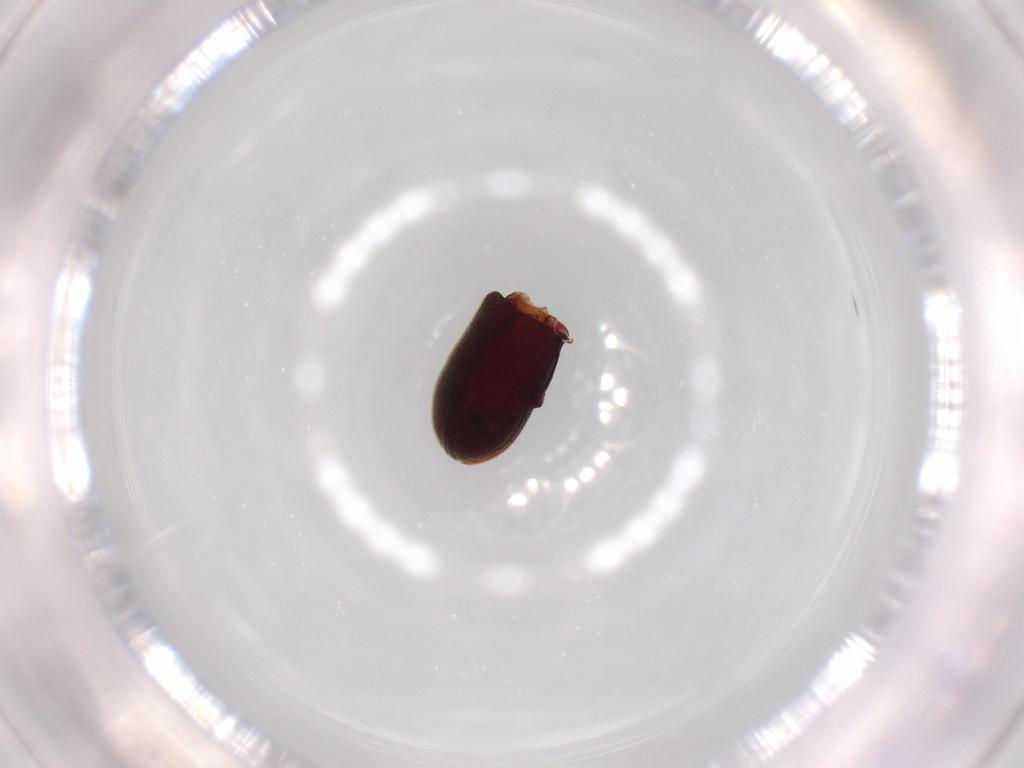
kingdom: Animalia
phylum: Arthropoda
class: Insecta
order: Coleoptera
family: Anobiidae
